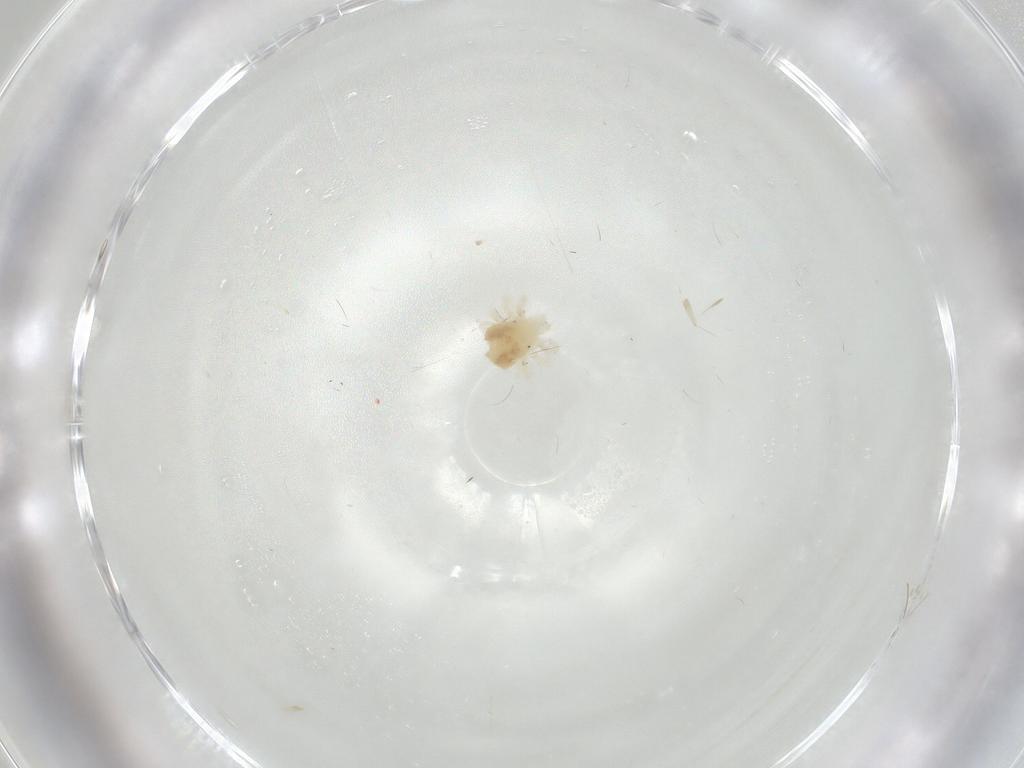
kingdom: Animalia
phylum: Arthropoda
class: Arachnida
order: Trombidiformes
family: Anystidae
